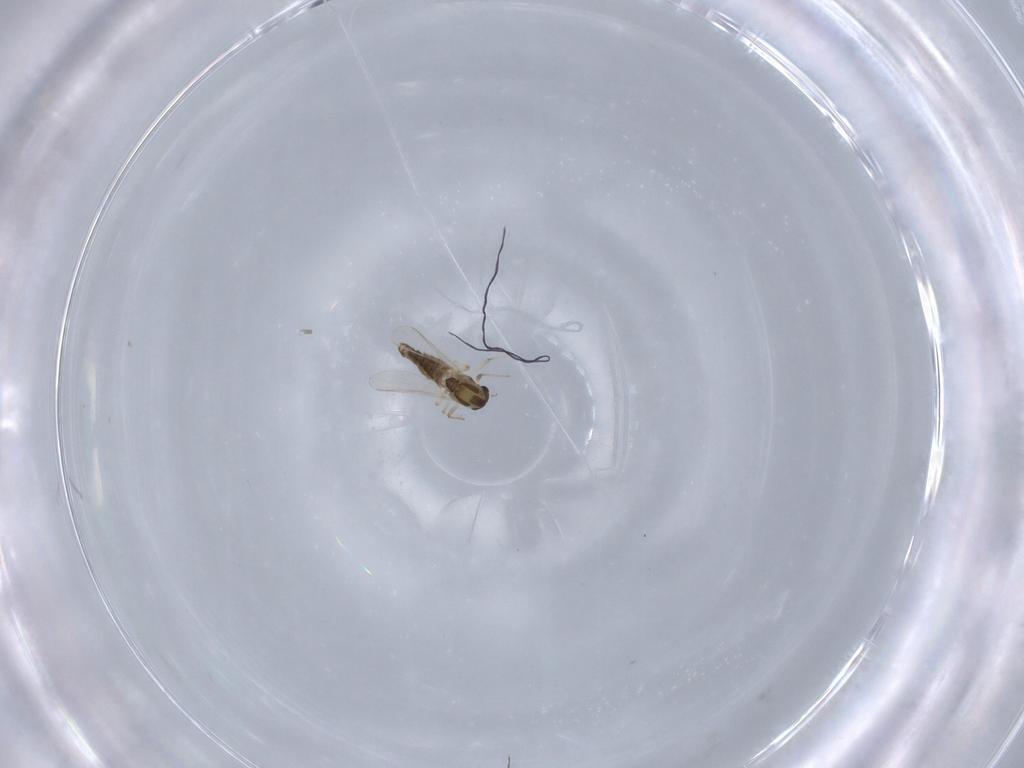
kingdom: Animalia
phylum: Arthropoda
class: Insecta
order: Diptera
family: Chironomidae
